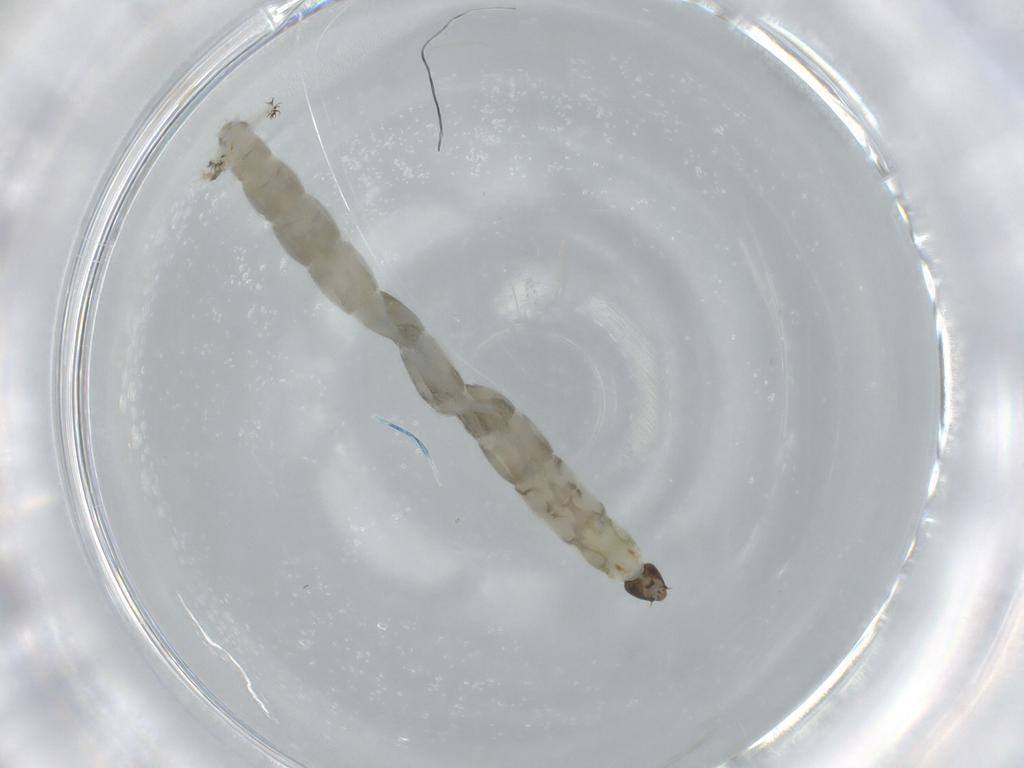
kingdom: Animalia
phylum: Arthropoda
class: Insecta
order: Diptera
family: Chironomidae
